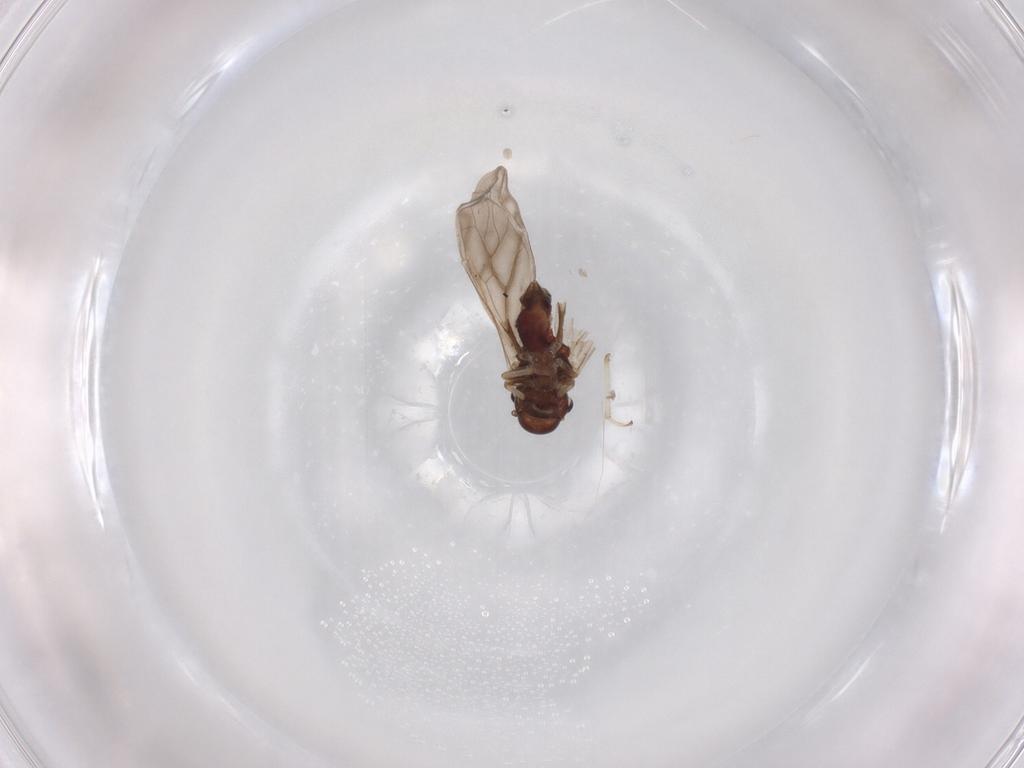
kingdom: Animalia
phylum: Arthropoda
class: Insecta
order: Psocodea
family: Caeciliusidae
